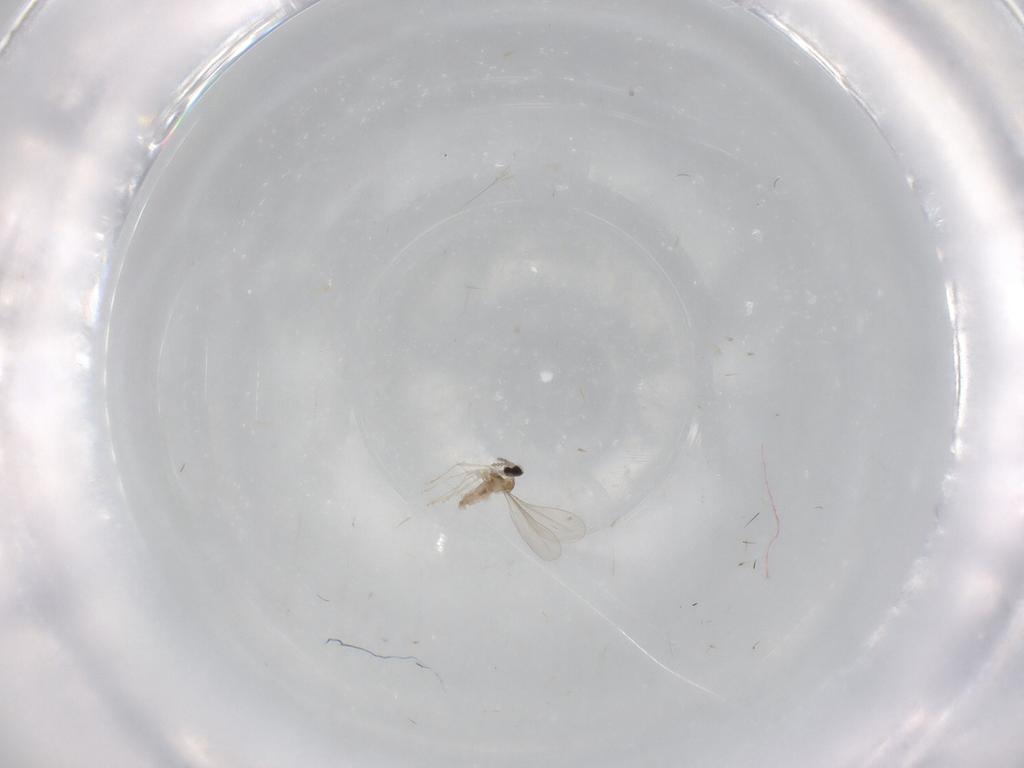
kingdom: Animalia
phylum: Arthropoda
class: Insecta
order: Diptera
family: Cecidomyiidae
